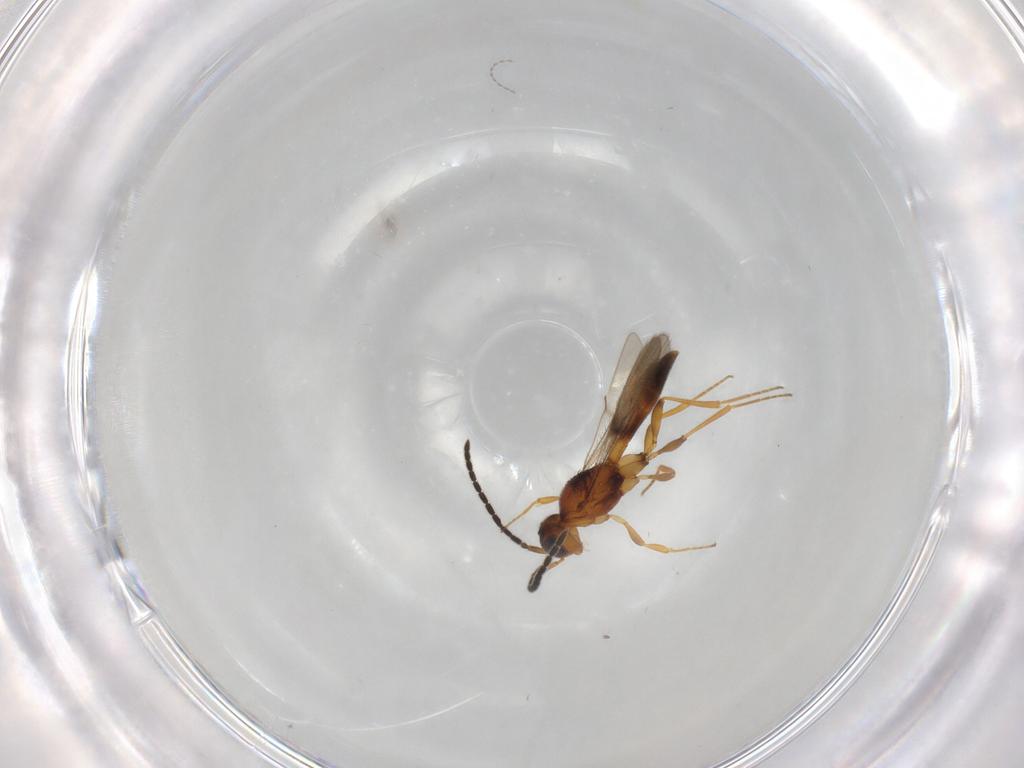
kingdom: Animalia
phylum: Arthropoda
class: Insecta
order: Hymenoptera
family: Scelionidae
